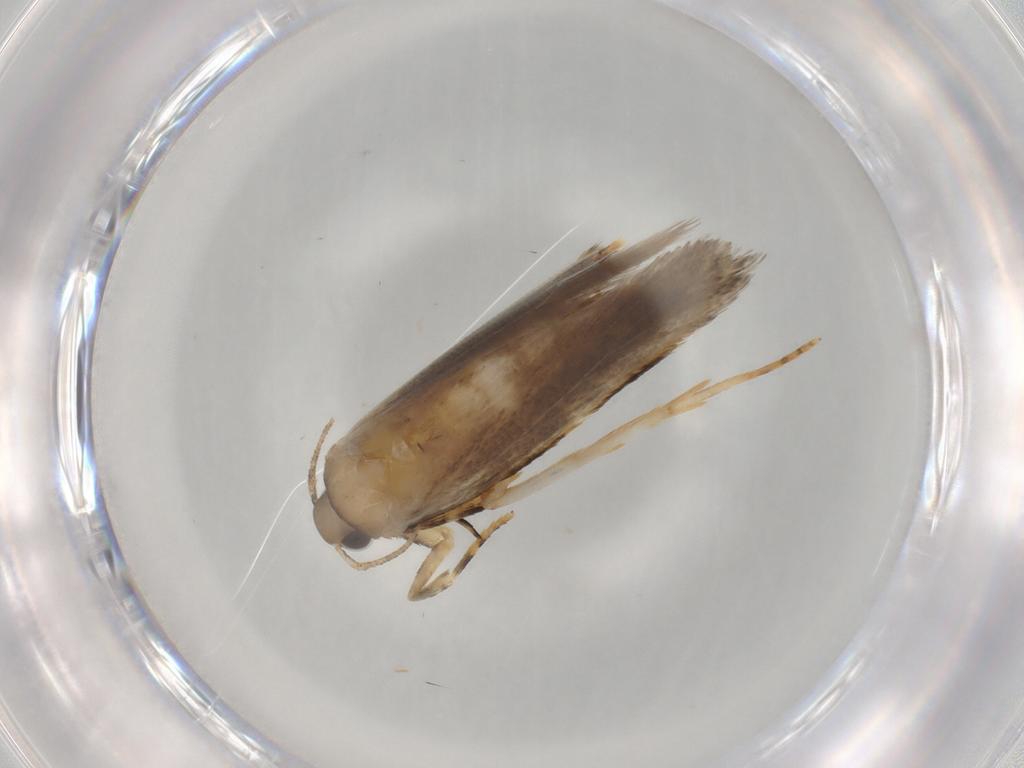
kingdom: Animalia
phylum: Arthropoda
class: Insecta
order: Lepidoptera
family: Autostichidae
